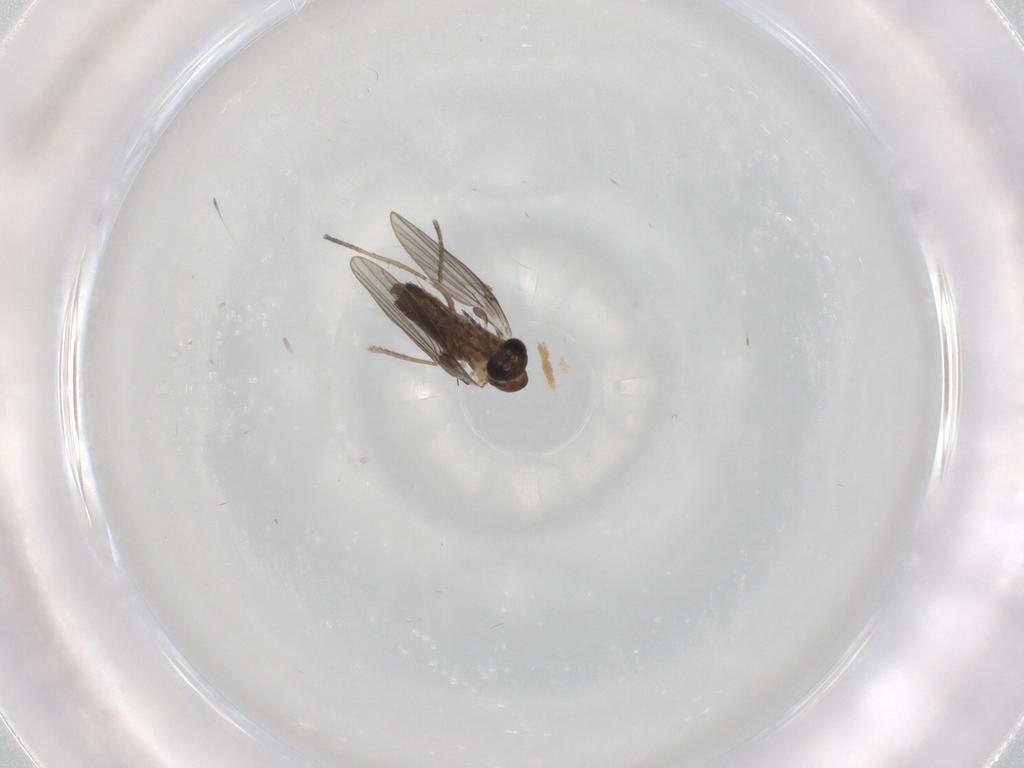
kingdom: Animalia
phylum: Arthropoda
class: Insecta
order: Diptera
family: Psychodidae
